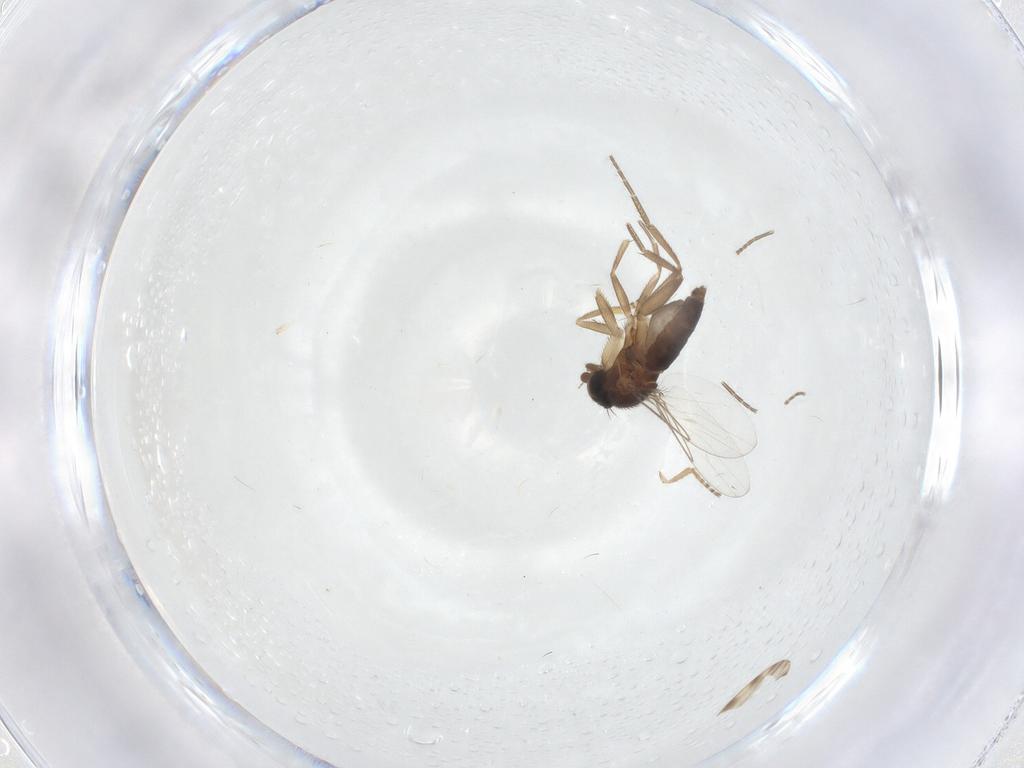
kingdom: Animalia
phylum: Arthropoda
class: Insecta
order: Diptera
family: Phoridae
